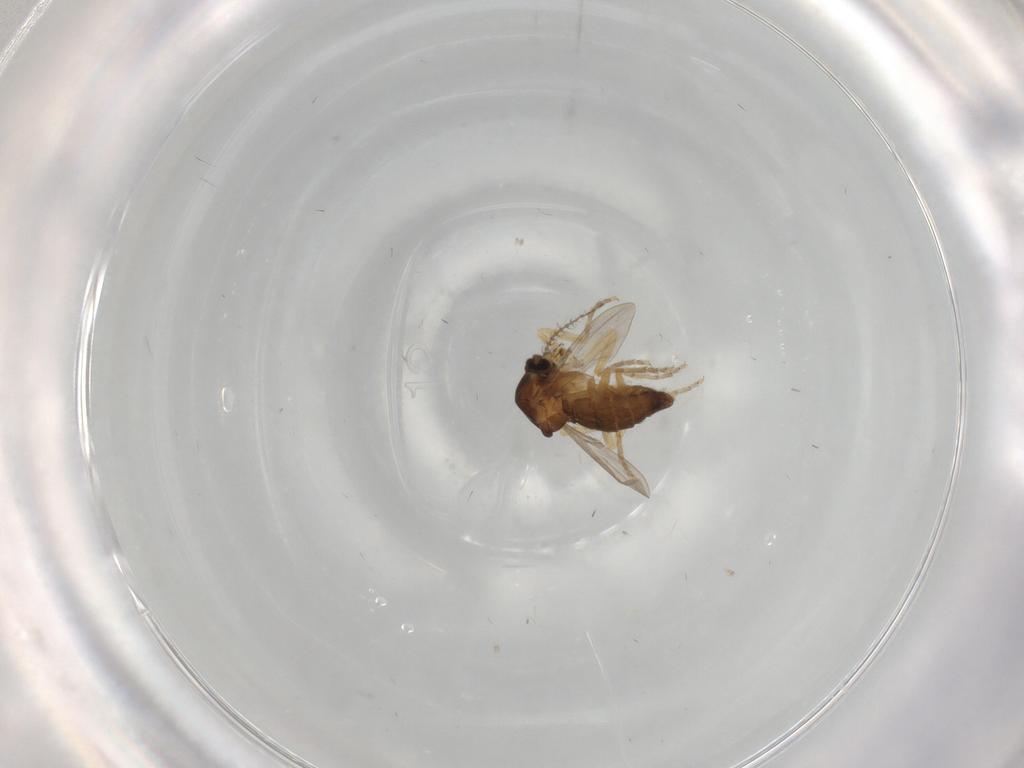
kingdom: Animalia
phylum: Arthropoda
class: Insecta
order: Diptera
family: Ceratopogonidae
